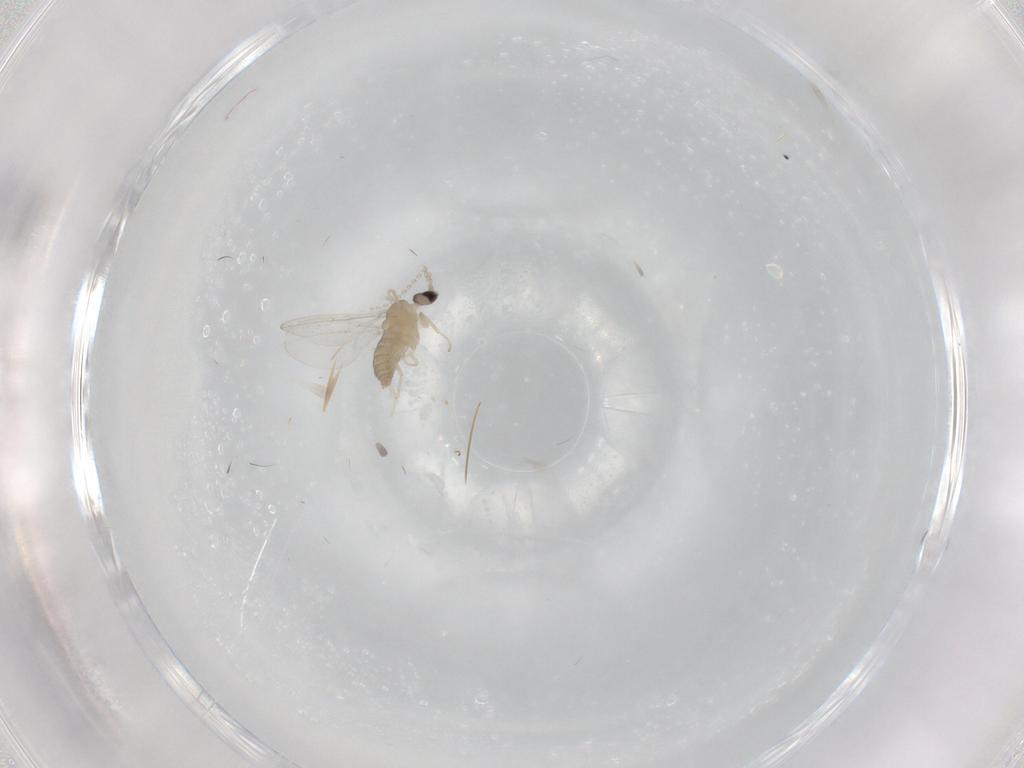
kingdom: Animalia
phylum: Arthropoda
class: Insecta
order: Diptera
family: Cecidomyiidae
